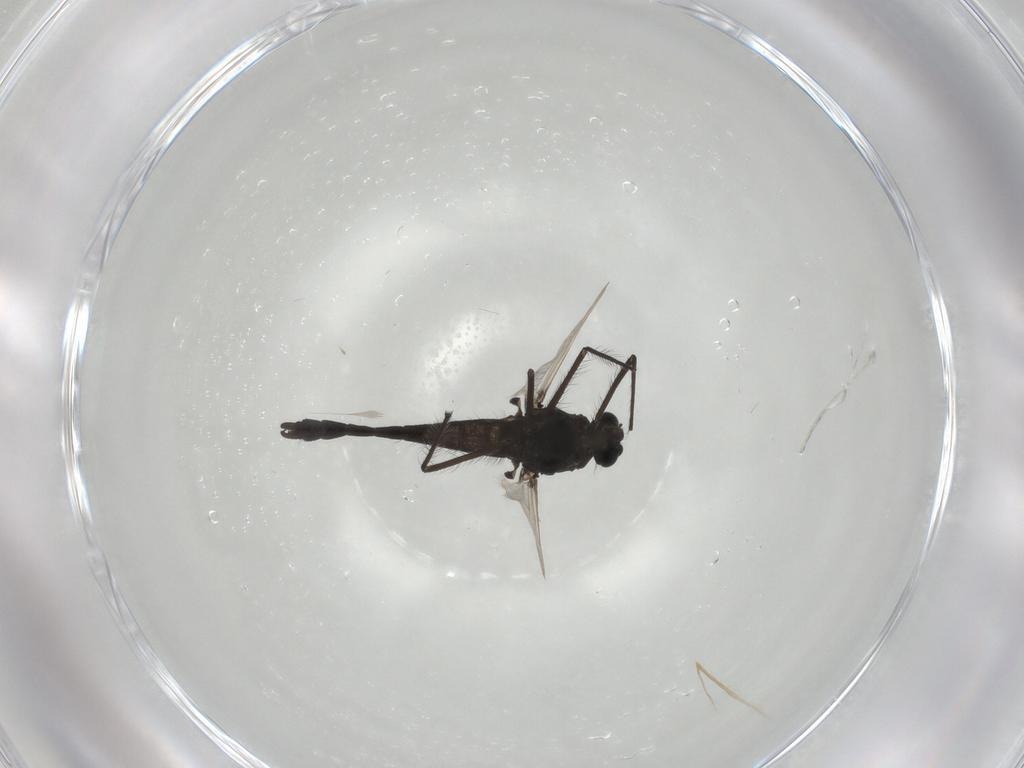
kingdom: Animalia
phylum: Arthropoda
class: Insecta
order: Diptera
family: Chironomidae
